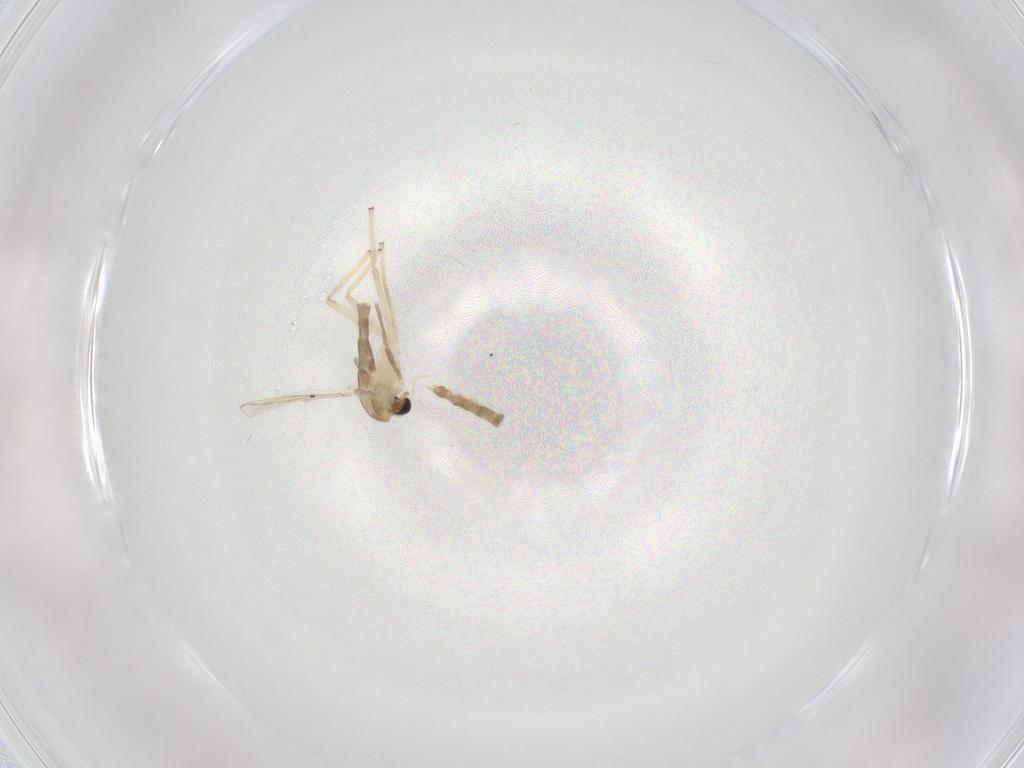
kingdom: Animalia
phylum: Arthropoda
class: Insecta
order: Diptera
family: Chironomidae
